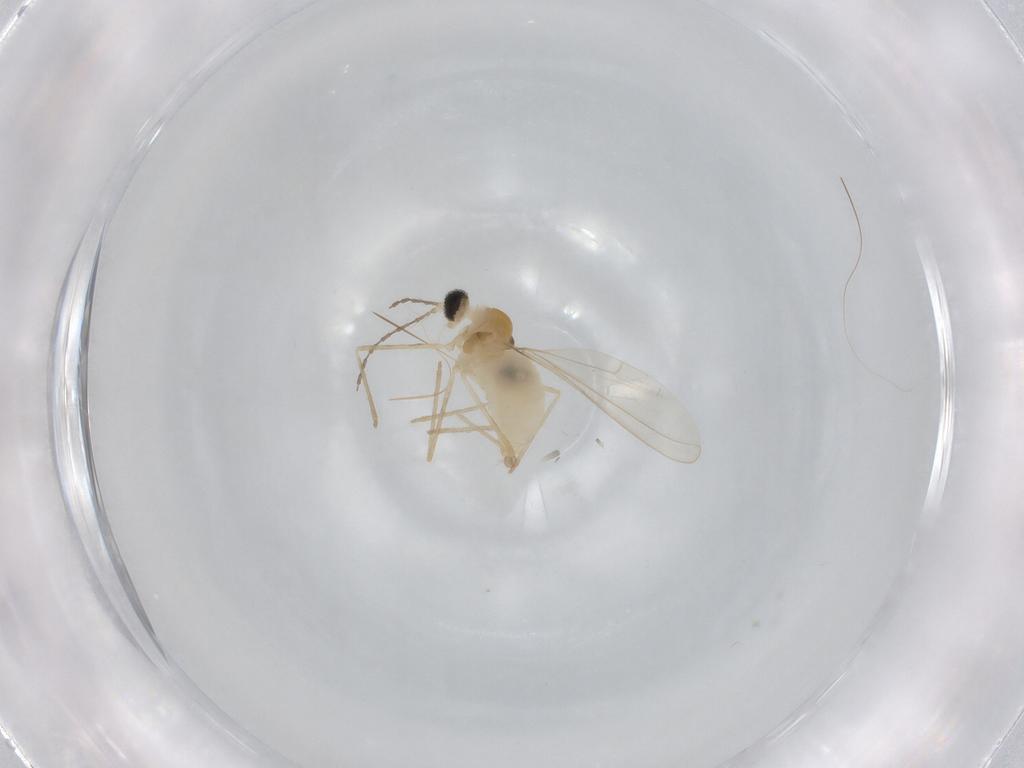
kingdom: Animalia
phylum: Arthropoda
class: Insecta
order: Diptera
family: Cecidomyiidae
